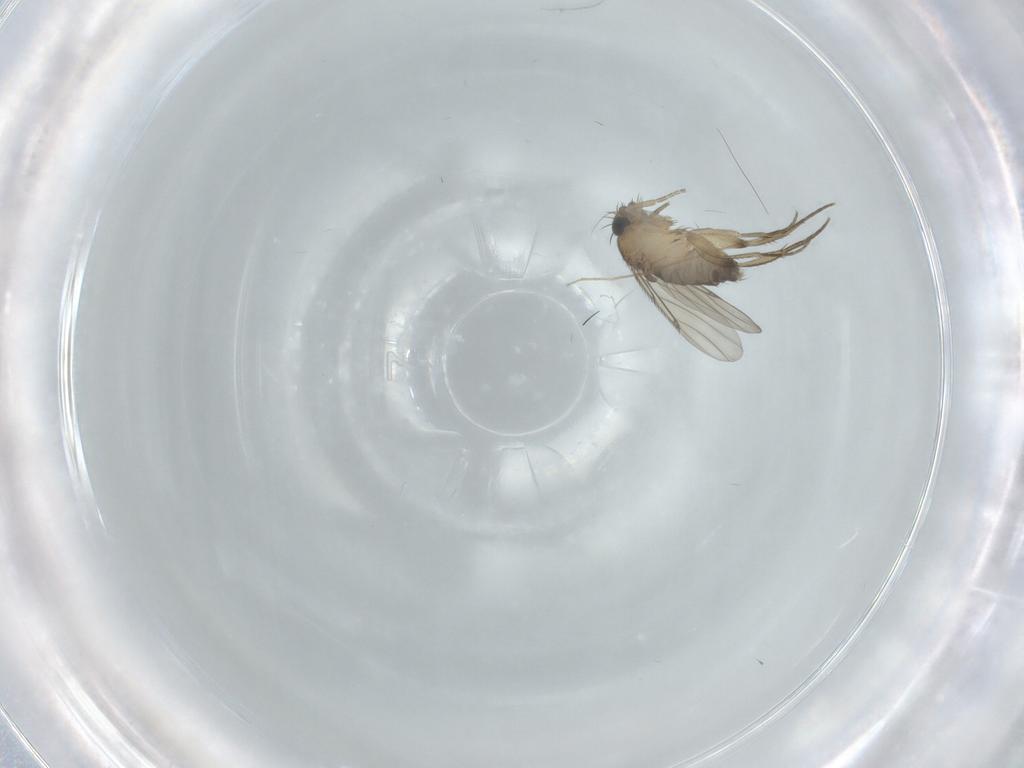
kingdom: Animalia
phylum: Arthropoda
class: Insecta
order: Diptera
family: Phoridae
